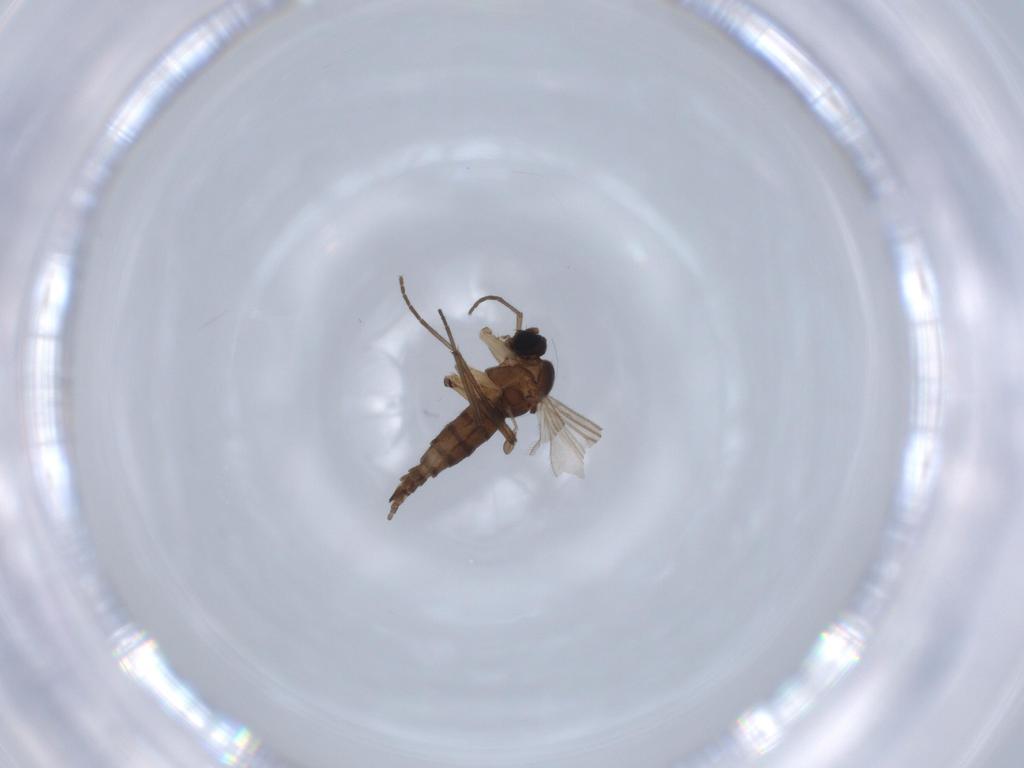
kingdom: Animalia
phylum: Arthropoda
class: Insecta
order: Diptera
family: Sciaridae
